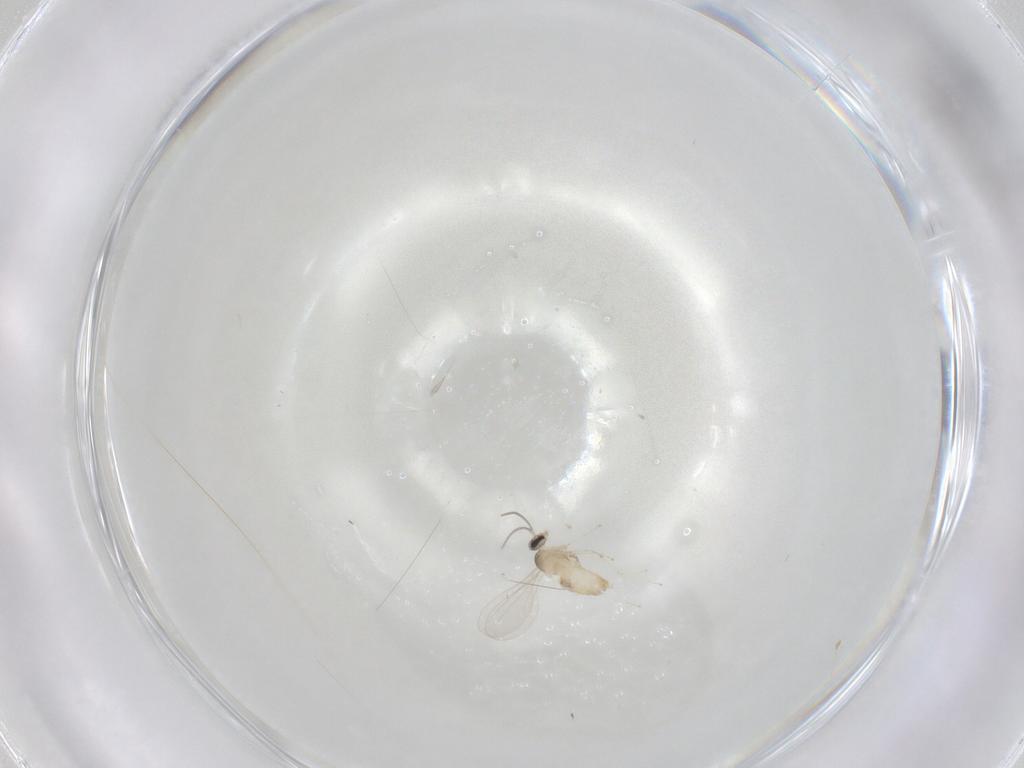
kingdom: Animalia
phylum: Arthropoda
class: Insecta
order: Diptera
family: Cecidomyiidae
